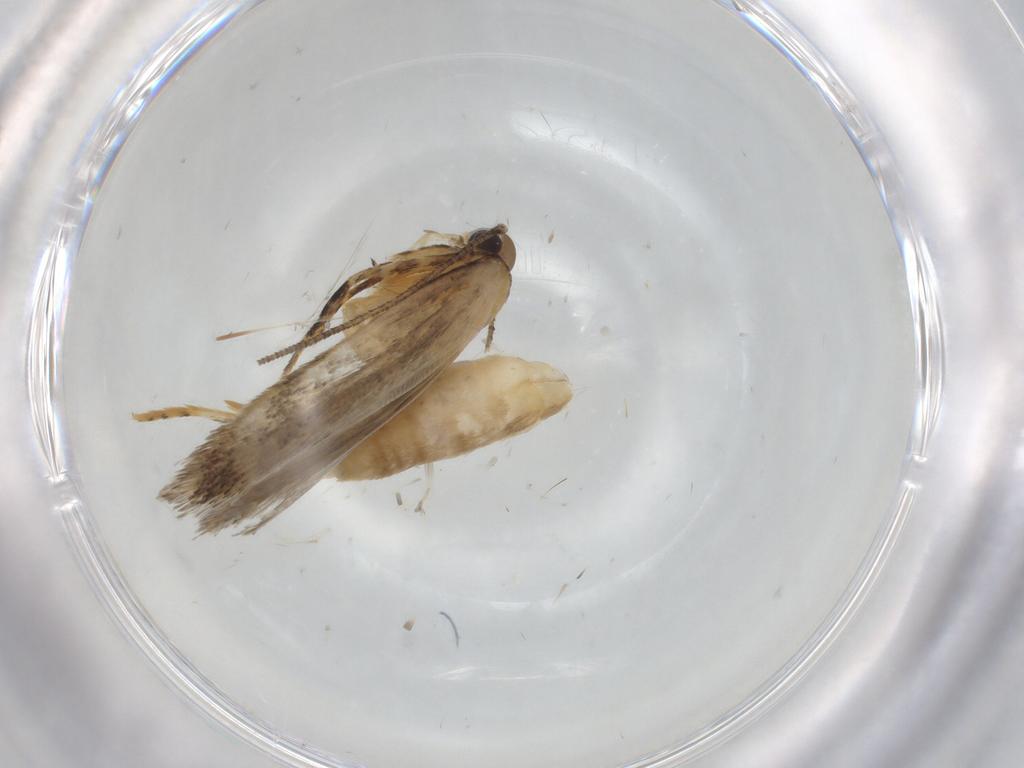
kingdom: Animalia
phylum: Arthropoda
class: Insecta
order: Lepidoptera
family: Autostichidae
